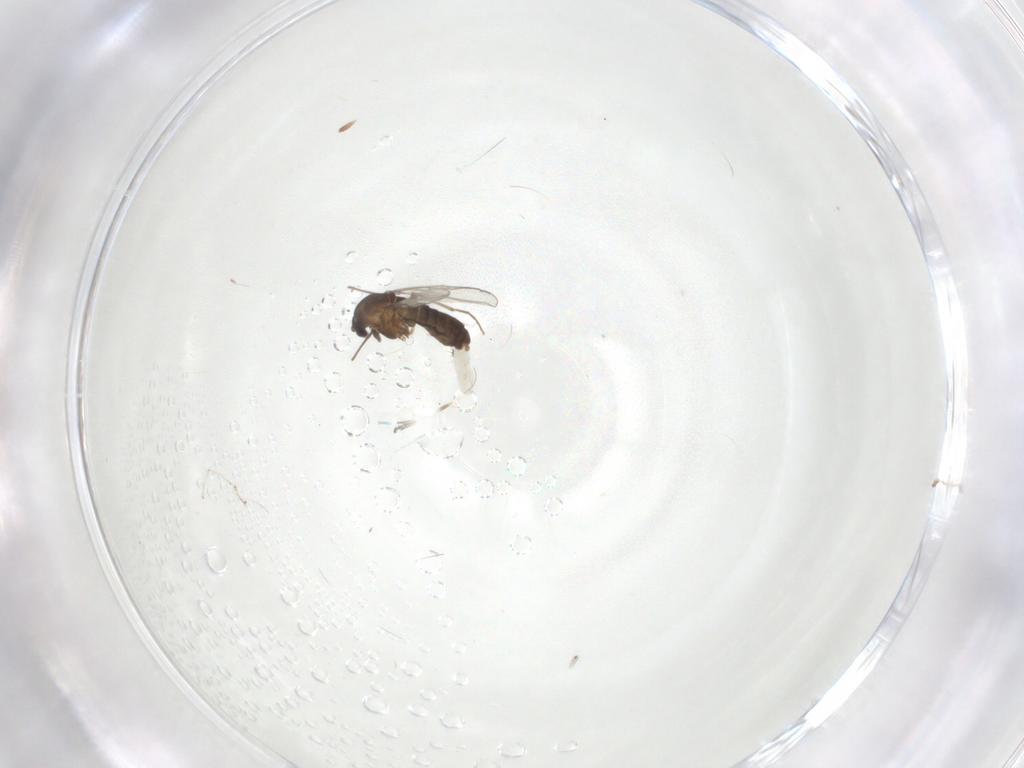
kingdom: Animalia
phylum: Arthropoda
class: Insecta
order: Diptera
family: Chironomidae
